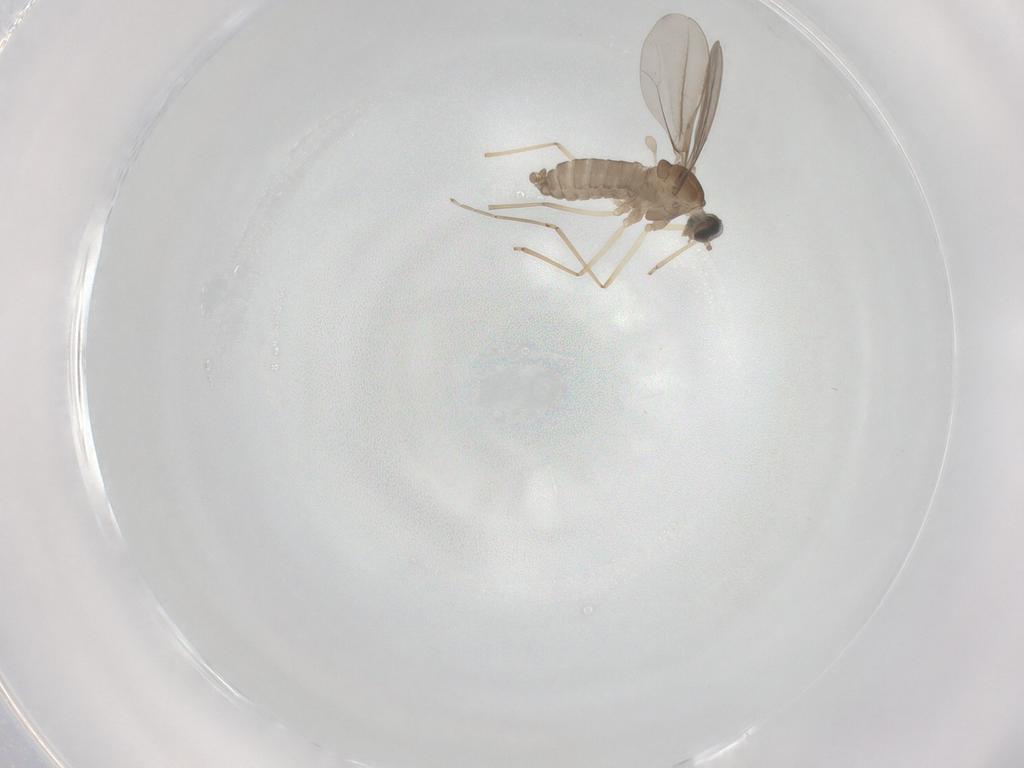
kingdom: Animalia
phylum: Arthropoda
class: Insecta
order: Diptera
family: Cecidomyiidae
